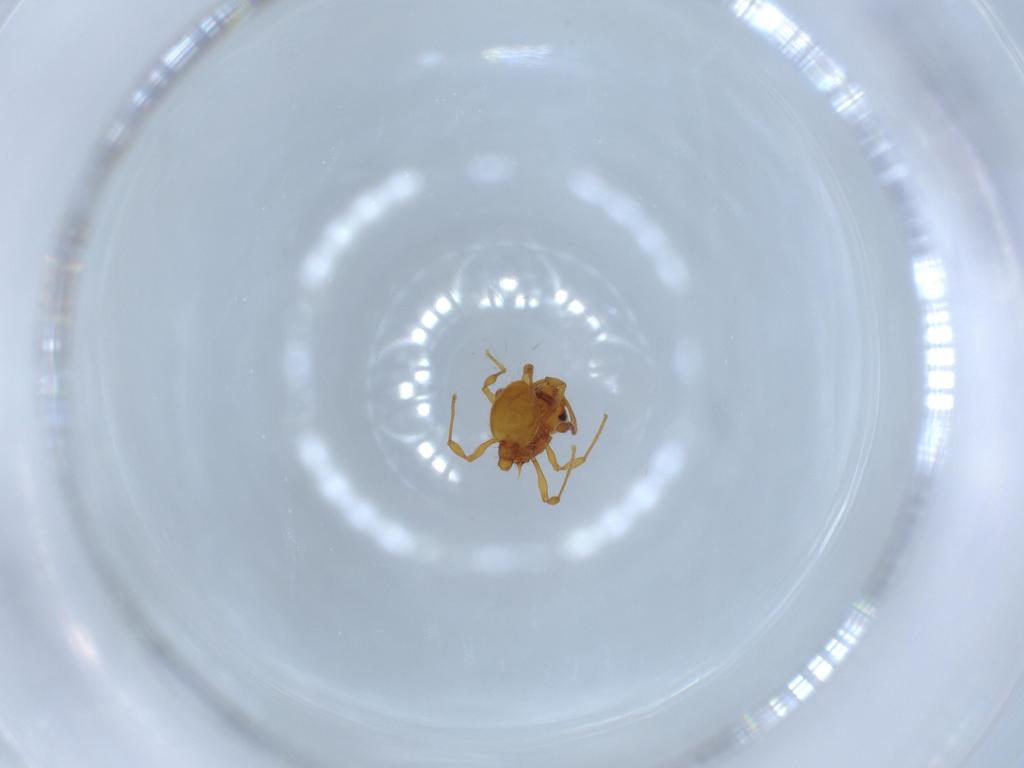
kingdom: Animalia
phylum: Arthropoda
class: Insecta
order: Hymenoptera
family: Formicidae
